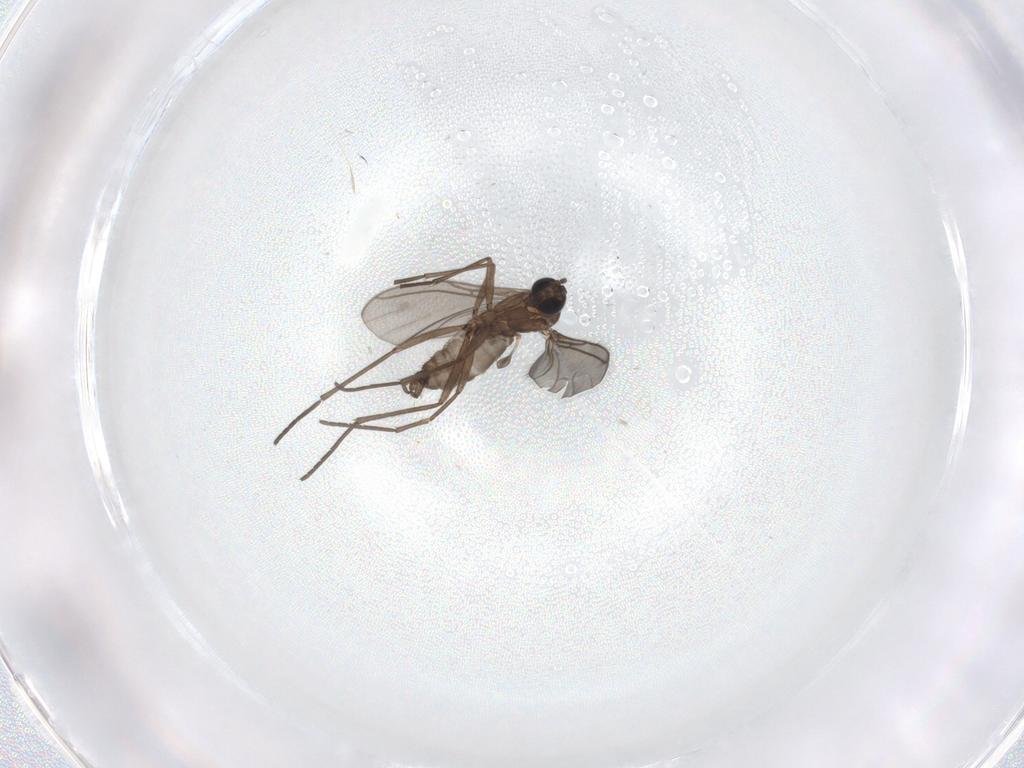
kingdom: Animalia
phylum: Arthropoda
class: Insecta
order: Diptera
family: Sciaridae
